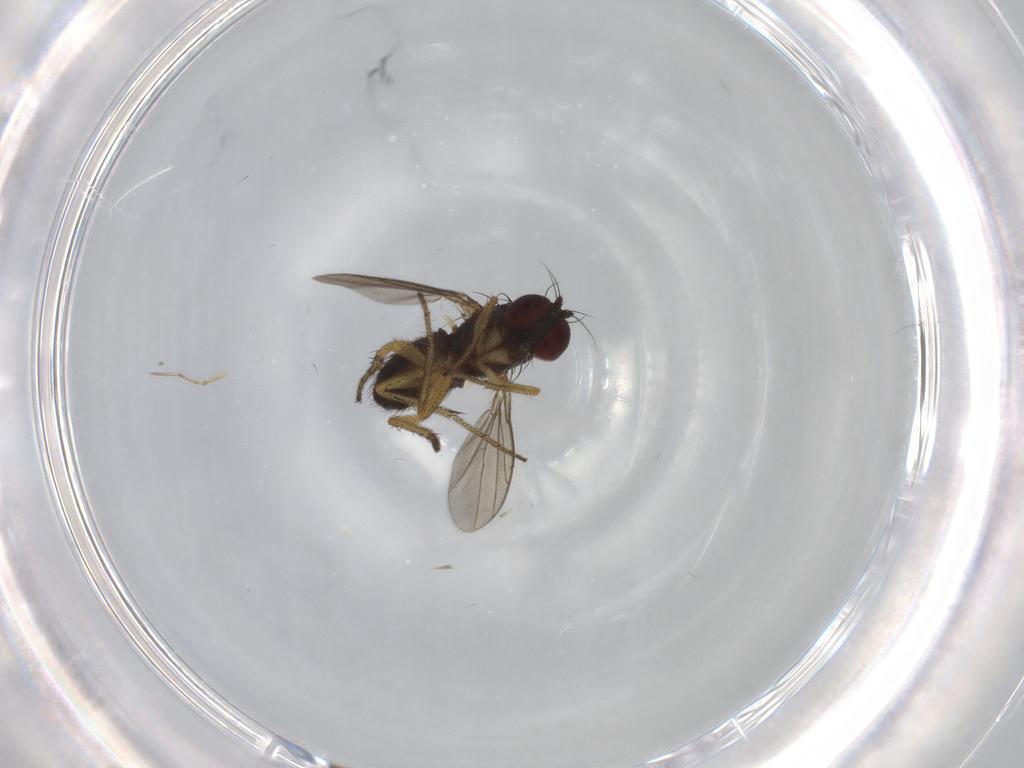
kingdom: Animalia
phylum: Arthropoda
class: Insecta
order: Diptera
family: Dolichopodidae
